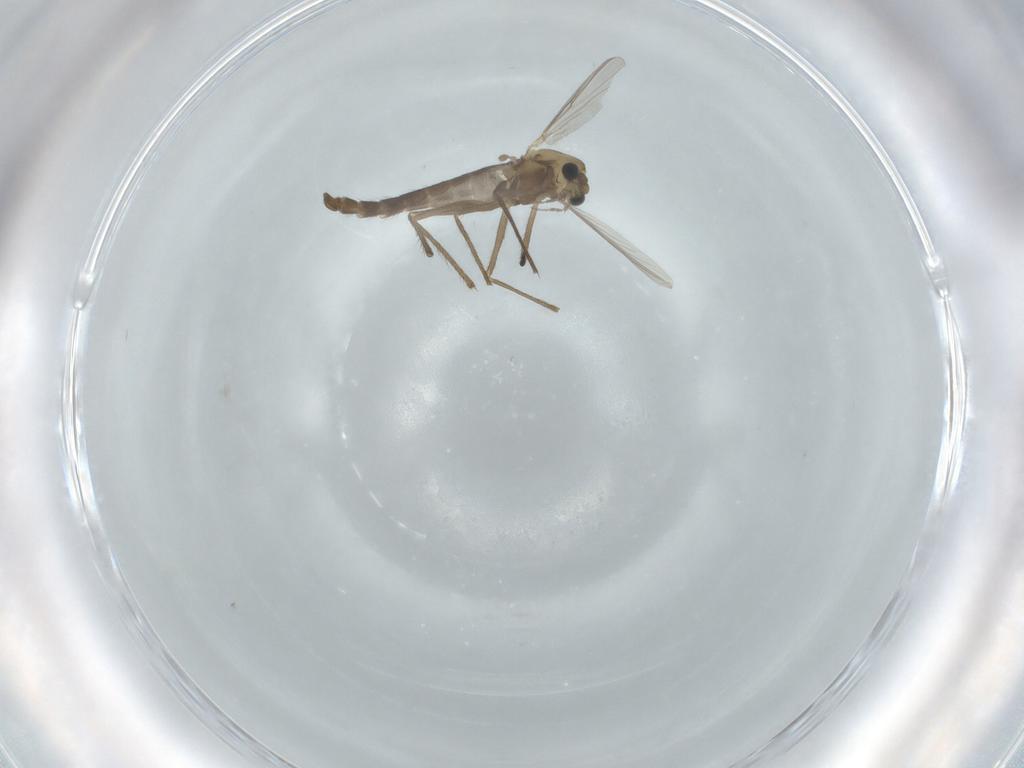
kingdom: Animalia
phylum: Arthropoda
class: Insecta
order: Diptera
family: Chironomidae
